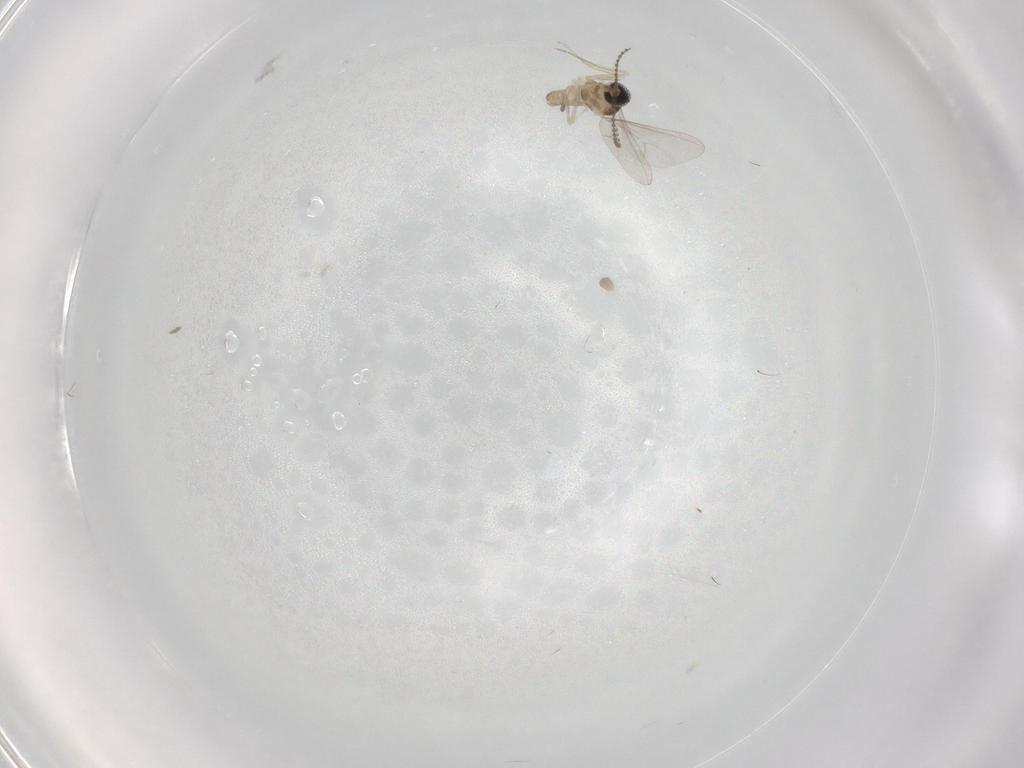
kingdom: Animalia
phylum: Arthropoda
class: Insecta
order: Diptera
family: Cecidomyiidae
